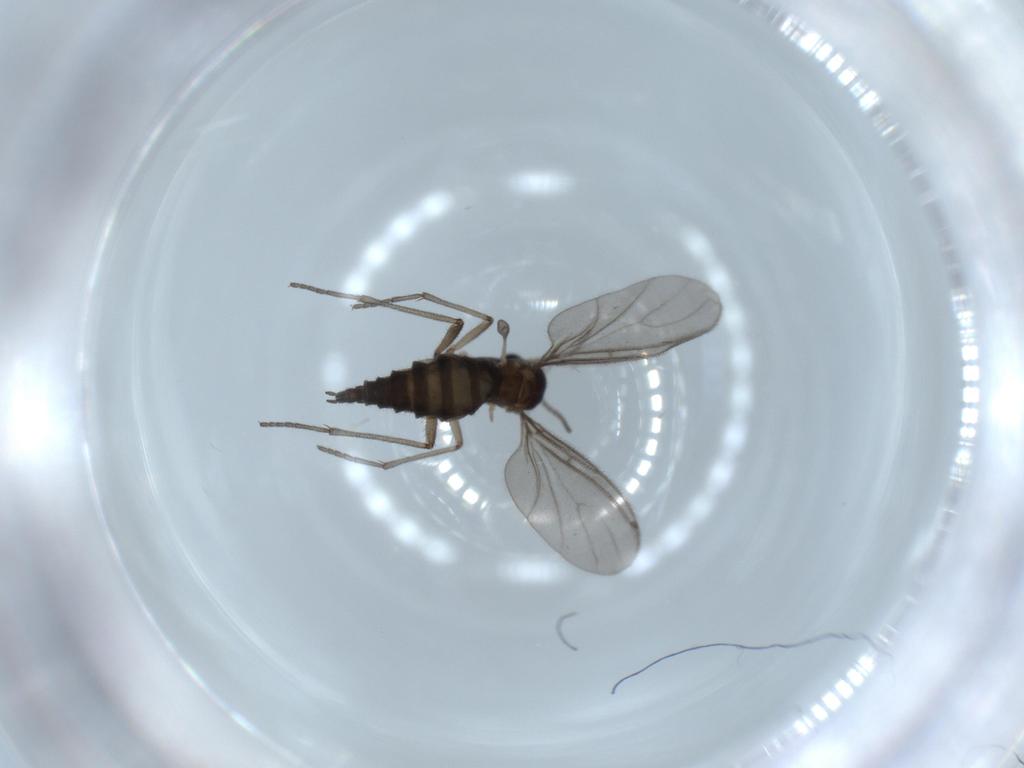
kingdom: Animalia
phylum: Arthropoda
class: Insecta
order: Diptera
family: Sciaridae
